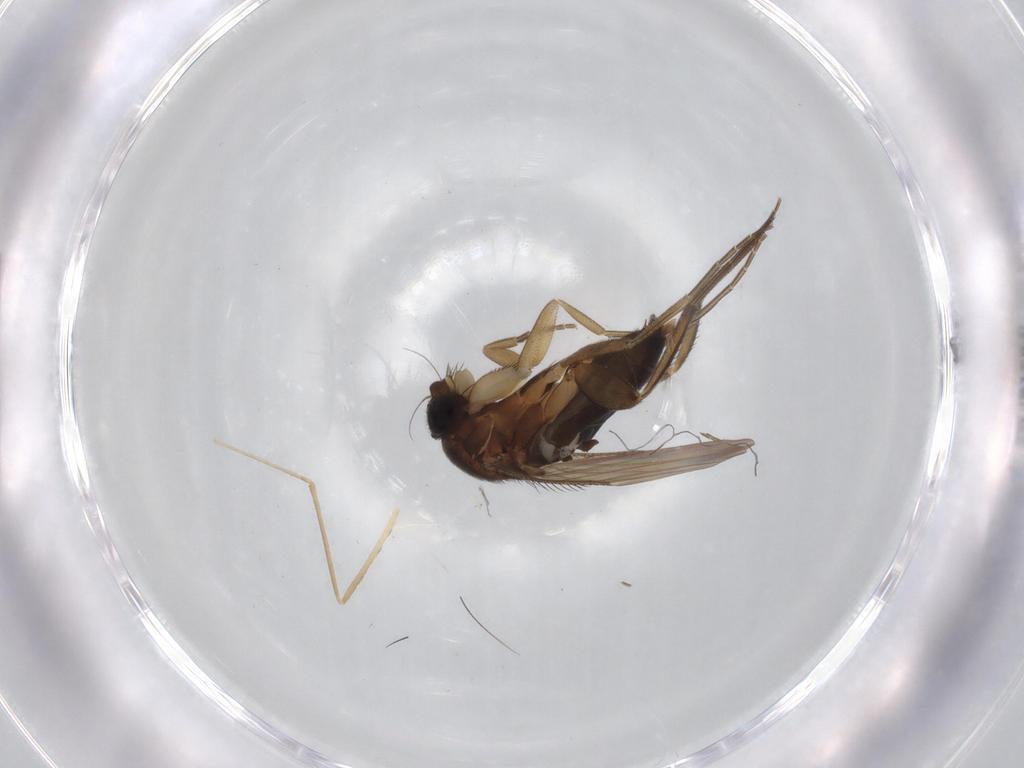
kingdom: Animalia
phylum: Arthropoda
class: Insecta
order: Diptera
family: Cecidomyiidae
